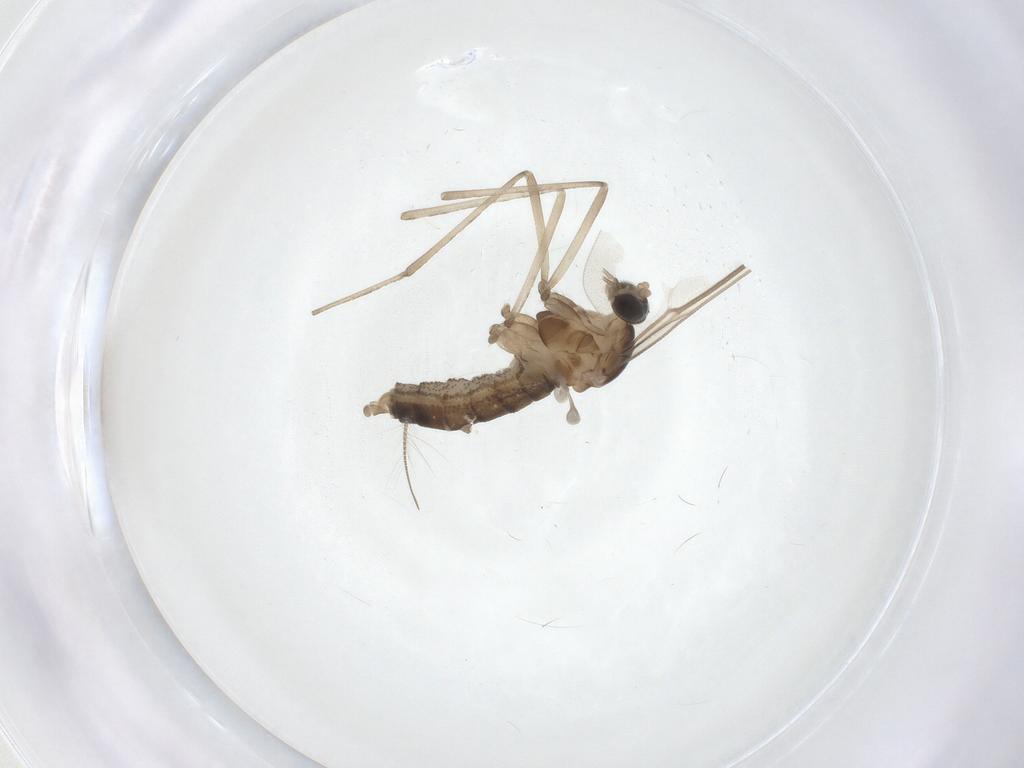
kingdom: Animalia
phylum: Arthropoda
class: Insecta
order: Diptera
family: Chironomidae
